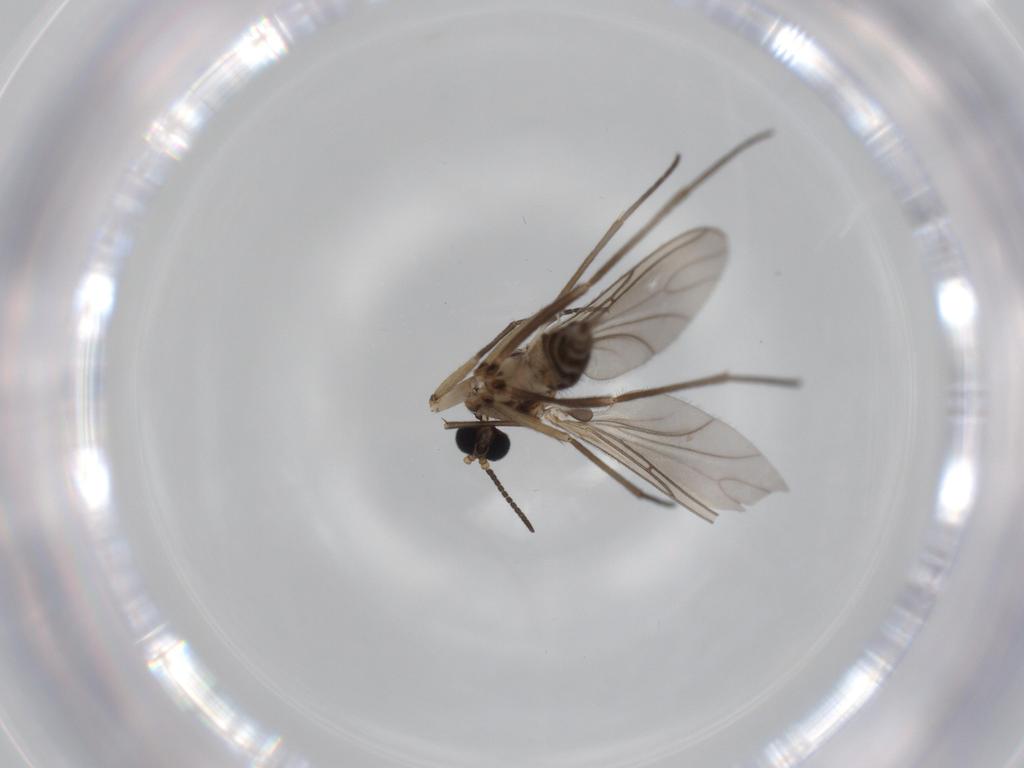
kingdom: Animalia
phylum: Arthropoda
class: Insecta
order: Diptera
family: Sciaridae
